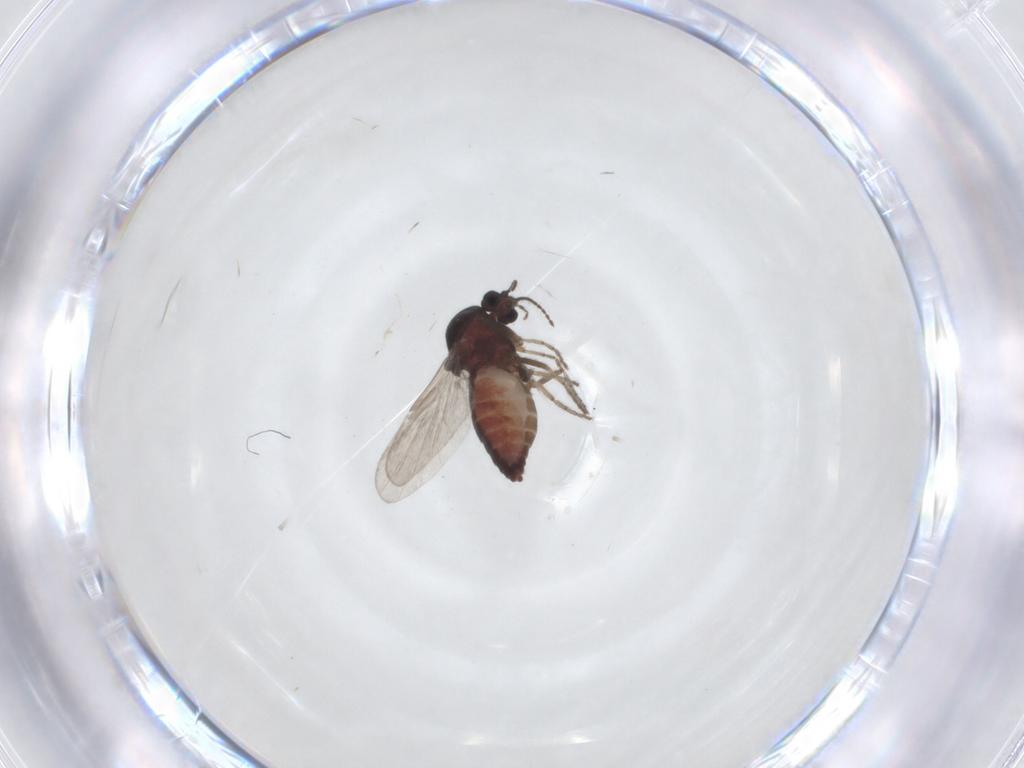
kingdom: Animalia
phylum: Arthropoda
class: Insecta
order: Diptera
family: Ceratopogonidae
